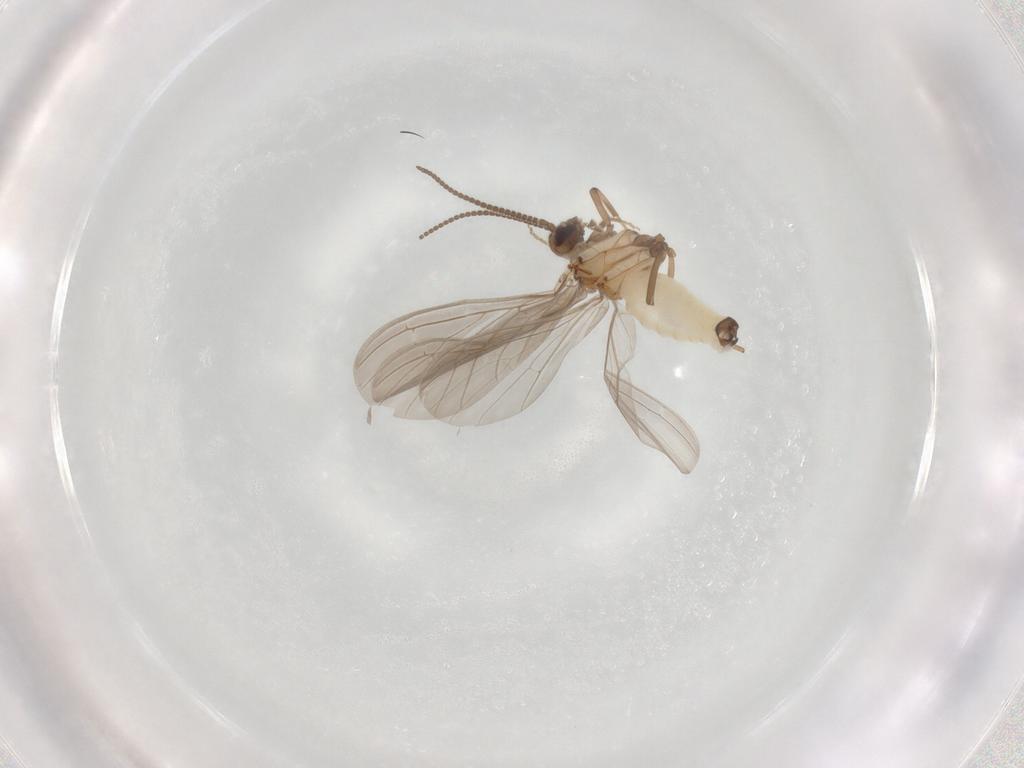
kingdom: Animalia
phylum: Arthropoda
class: Insecta
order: Neuroptera
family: Coniopterygidae
